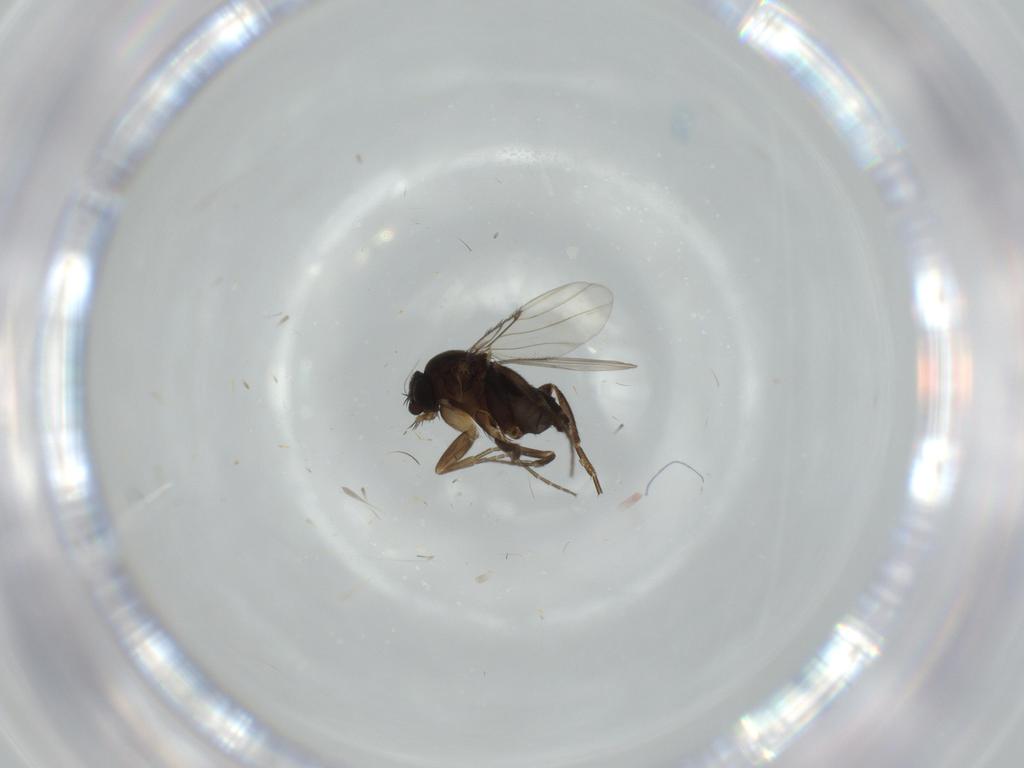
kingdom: Animalia
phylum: Arthropoda
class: Insecta
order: Diptera
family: Phoridae
